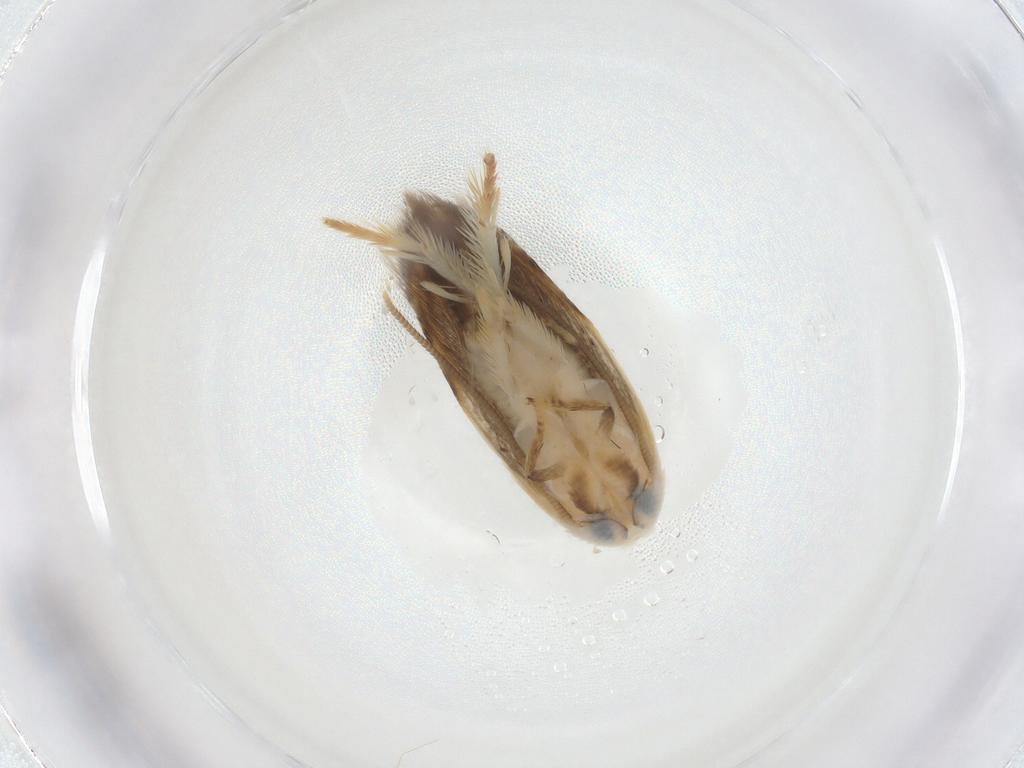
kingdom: Animalia
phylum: Arthropoda
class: Insecta
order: Lepidoptera
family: Opostegidae
